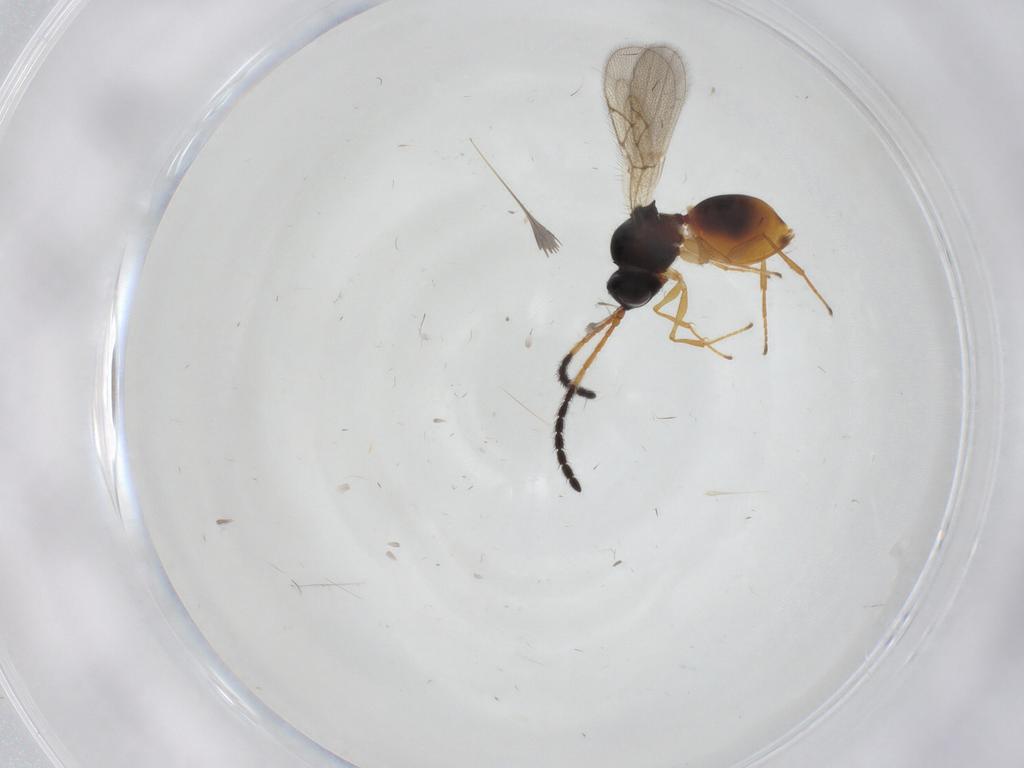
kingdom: Animalia
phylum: Arthropoda
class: Insecta
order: Hymenoptera
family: Figitidae
